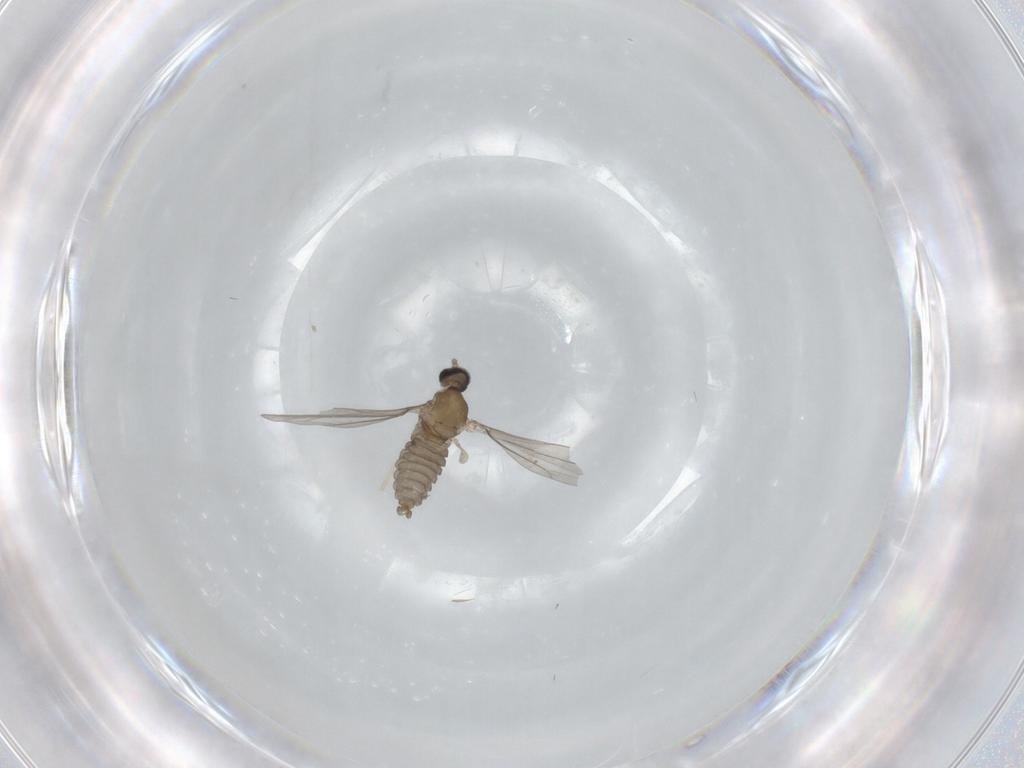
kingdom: Animalia
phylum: Arthropoda
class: Insecta
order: Diptera
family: Cecidomyiidae
